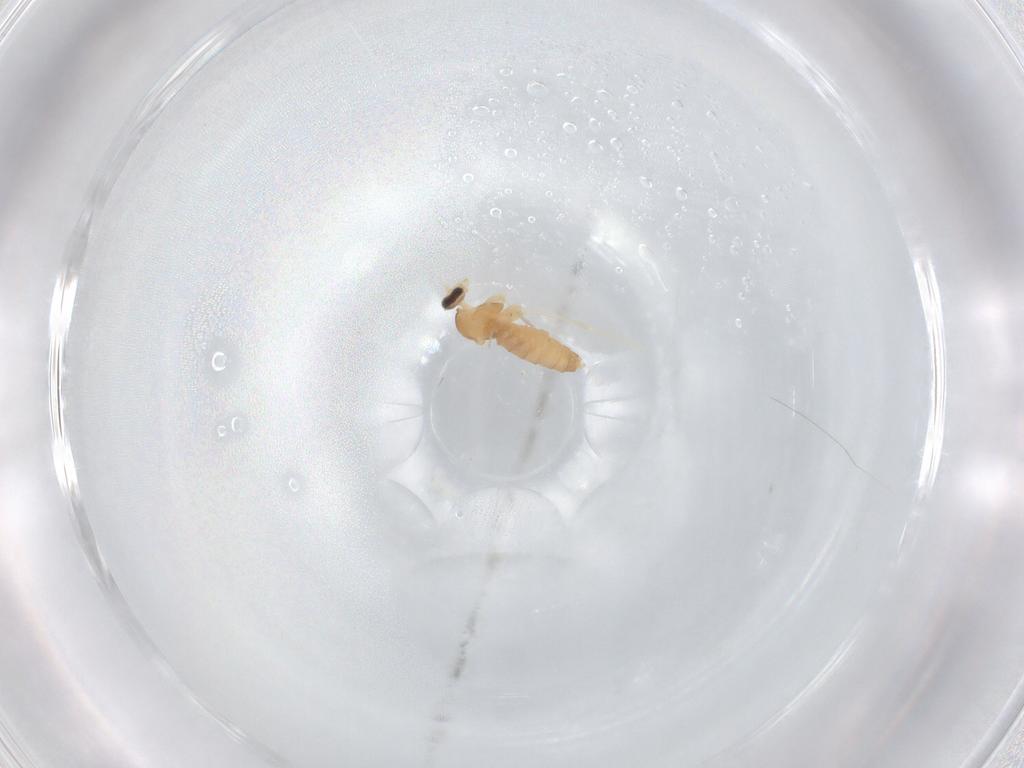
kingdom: Animalia
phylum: Arthropoda
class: Insecta
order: Diptera
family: Cecidomyiidae
